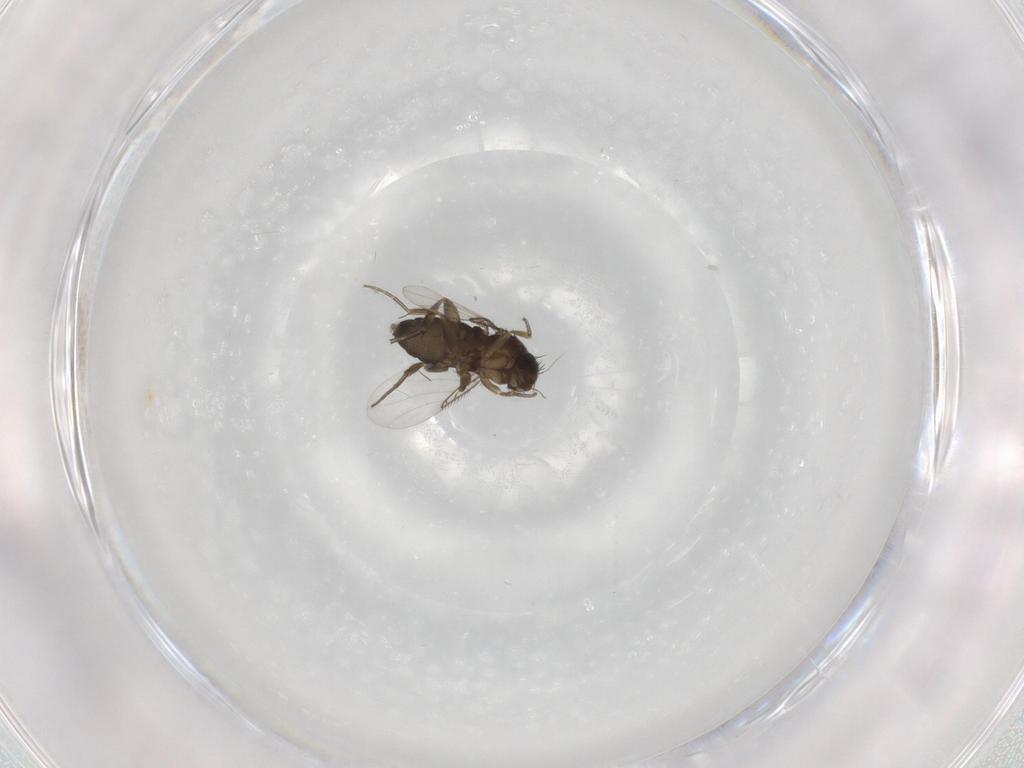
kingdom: Animalia
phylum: Arthropoda
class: Insecta
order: Diptera
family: Phoridae
